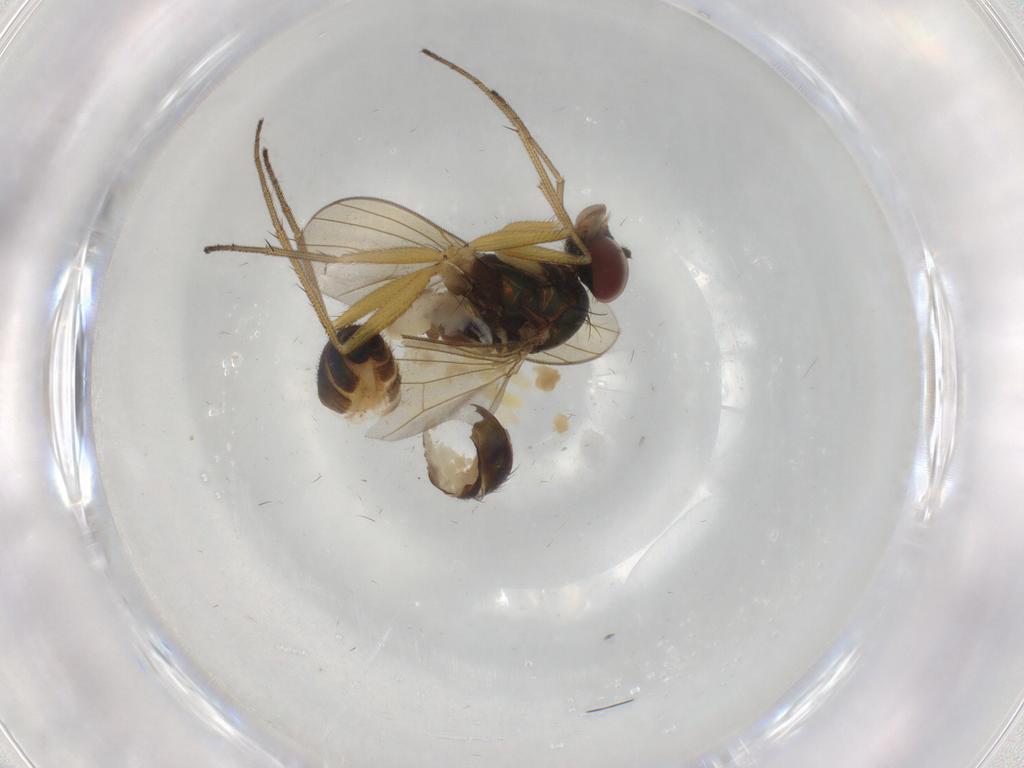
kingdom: Animalia
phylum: Arthropoda
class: Insecta
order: Diptera
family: Dolichopodidae
